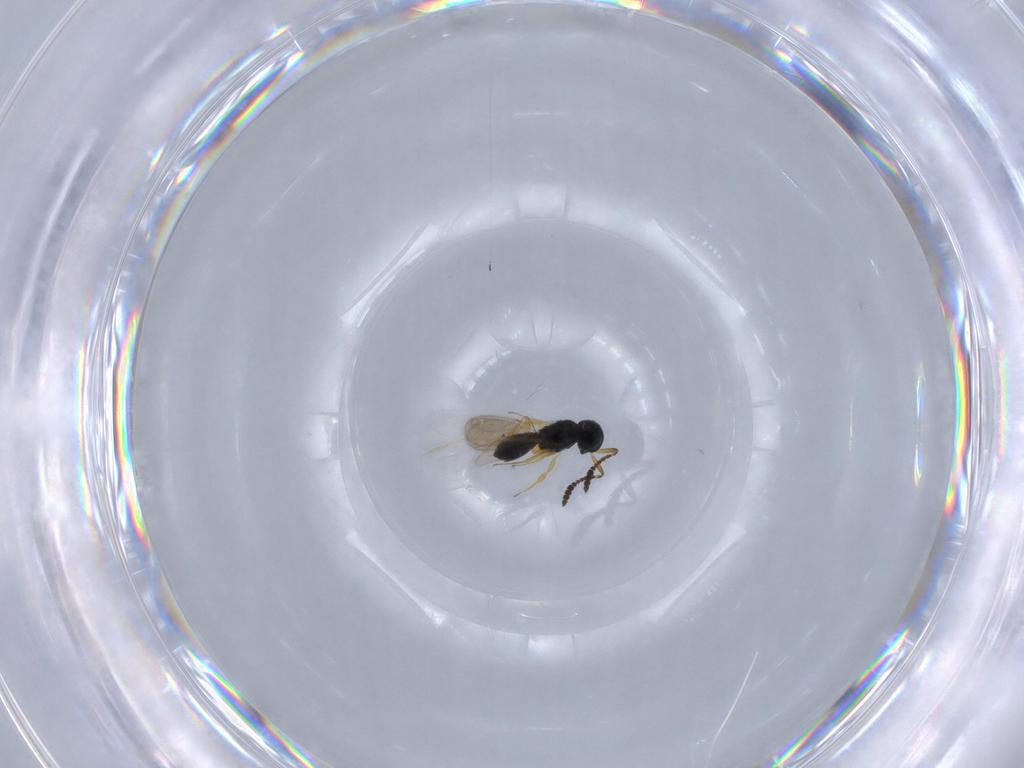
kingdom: Animalia
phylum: Arthropoda
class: Insecta
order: Hymenoptera
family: Scelionidae
